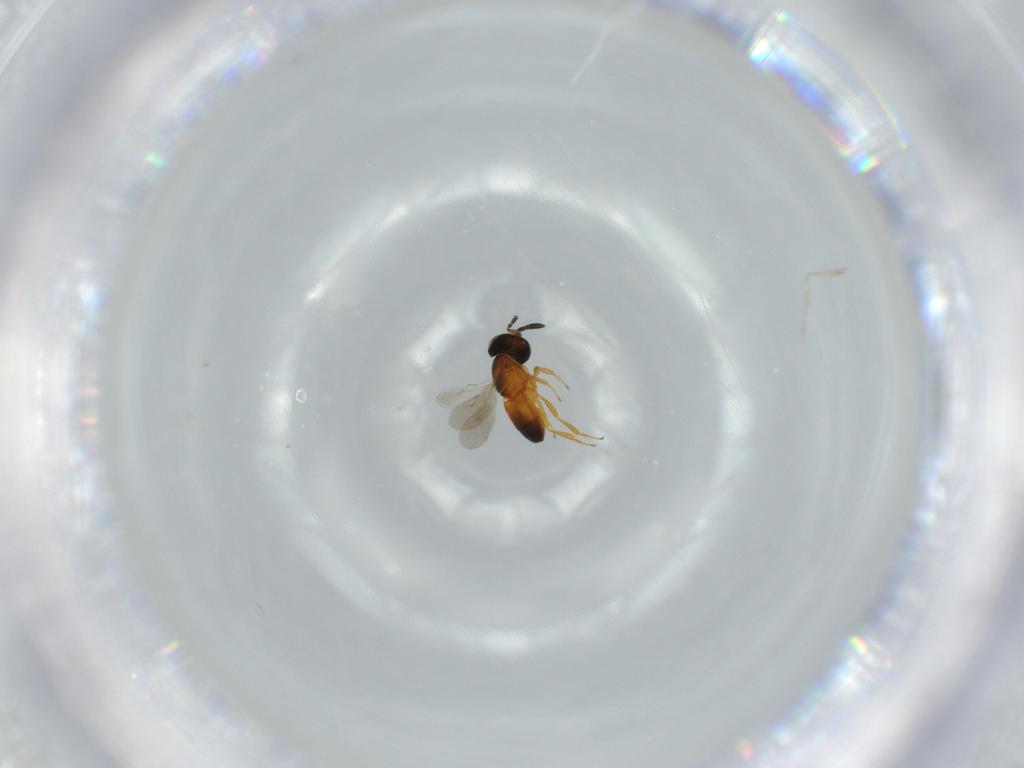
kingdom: Animalia
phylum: Arthropoda
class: Insecta
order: Hymenoptera
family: Scelionidae
